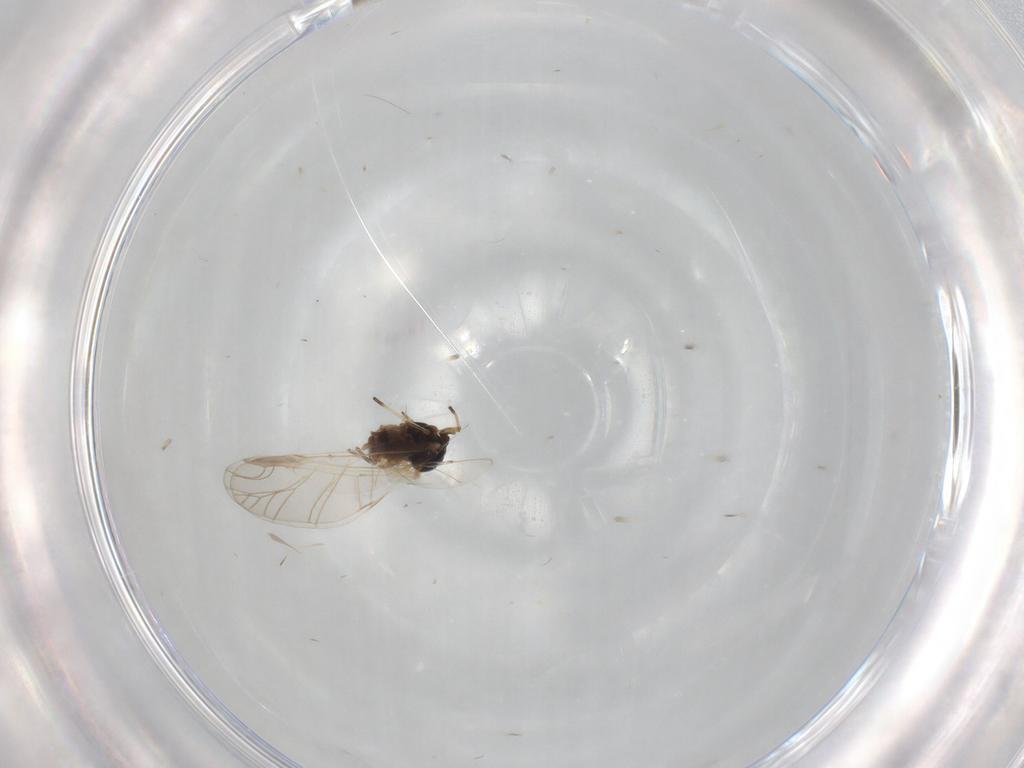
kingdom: Animalia
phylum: Arthropoda
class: Insecta
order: Hemiptera
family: Aphididae
